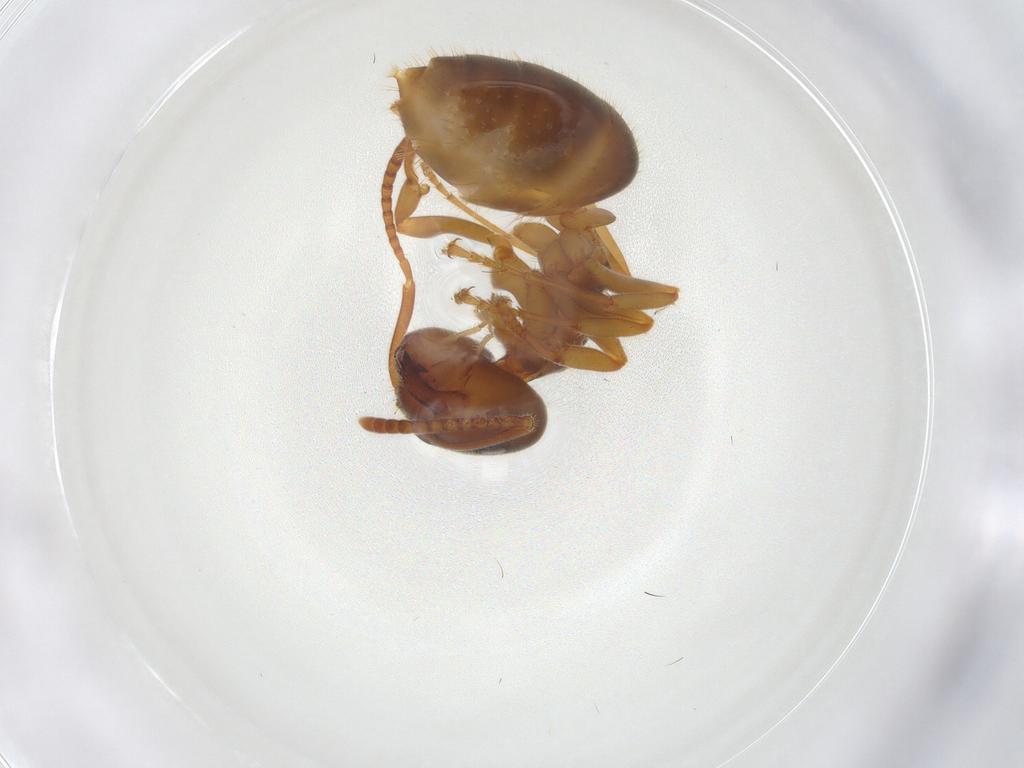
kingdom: Animalia
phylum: Arthropoda
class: Insecta
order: Hymenoptera
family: Formicidae
